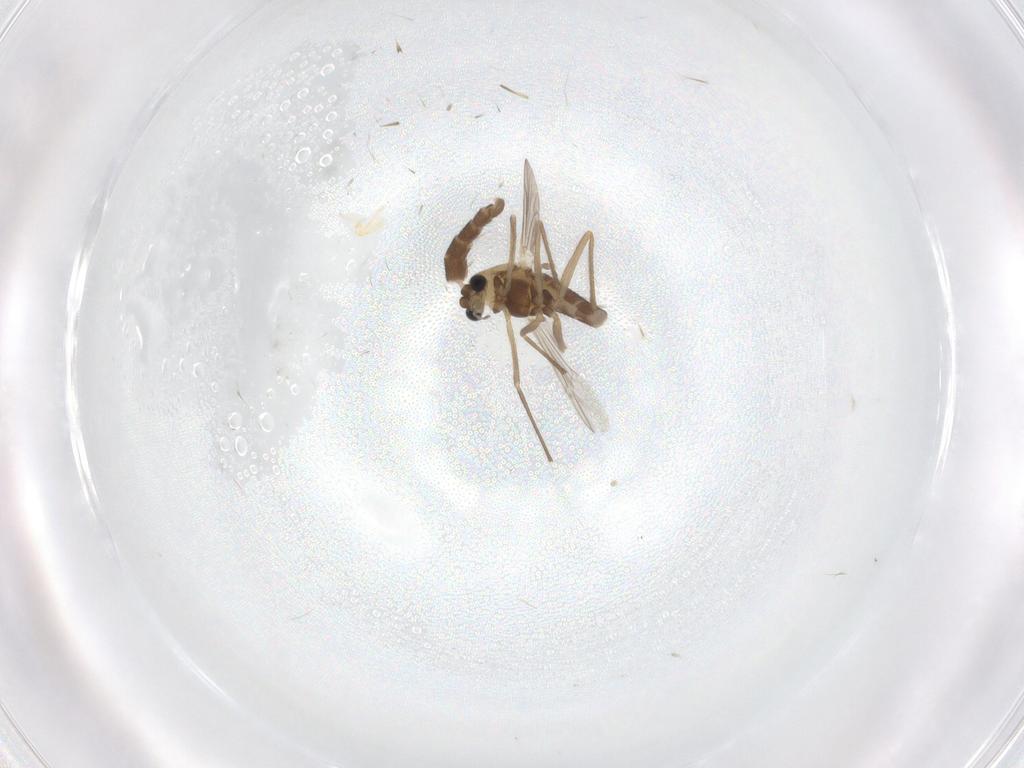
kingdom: Animalia
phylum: Arthropoda
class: Insecta
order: Diptera
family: Chironomidae
